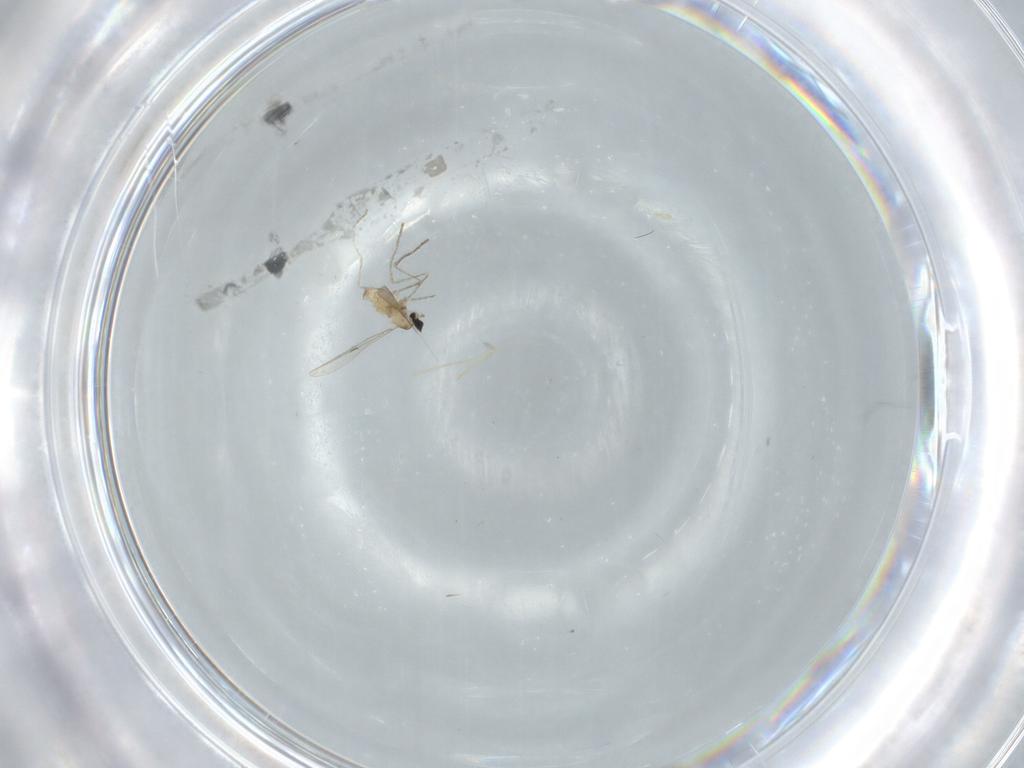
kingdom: Animalia
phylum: Arthropoda
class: Insecta
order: Diptera
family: Cecidomyiidae
